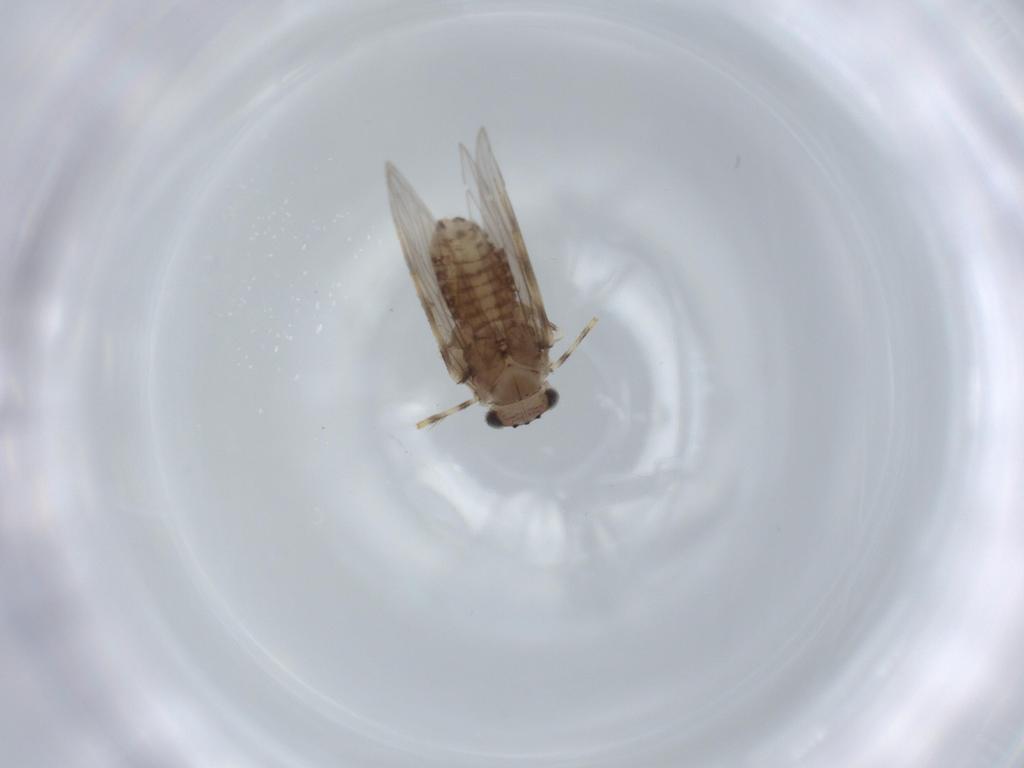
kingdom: Animalia
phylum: Arthropoda
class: Insecta
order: Psocodea
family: Lepidopsocidae
